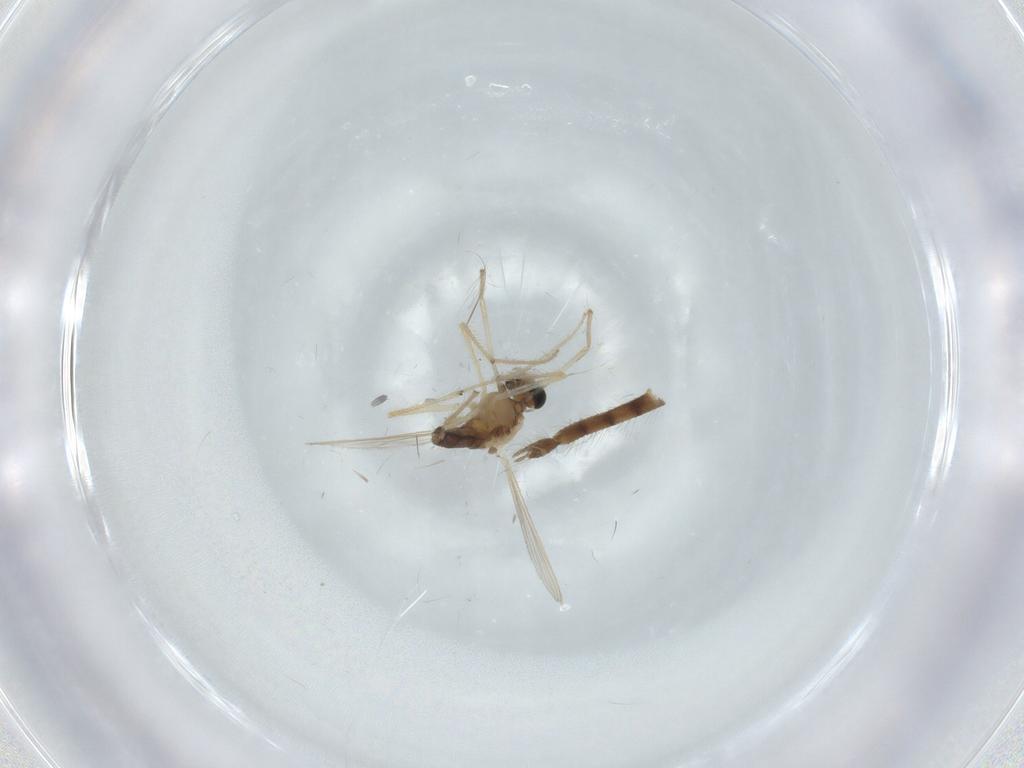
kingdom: Animalia
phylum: Arthropoda
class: Insecta
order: Diptera
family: Chironomidae
